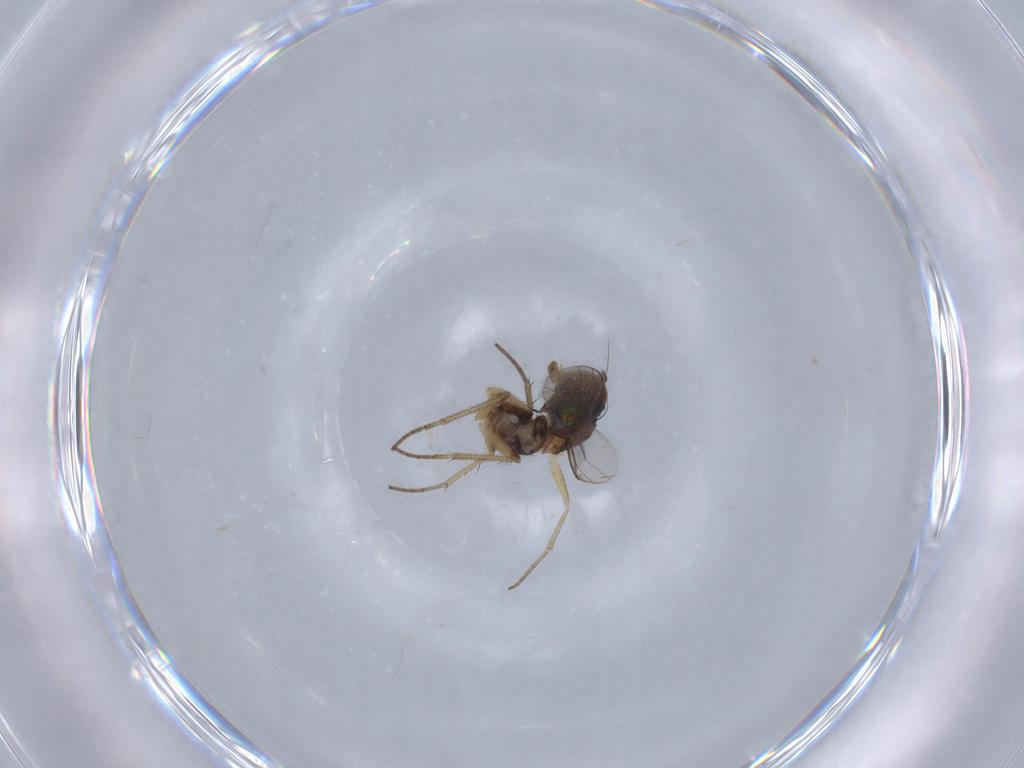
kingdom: Animalia
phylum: Arthropoda
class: Insecta
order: Diptera
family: Dolichopodidae
